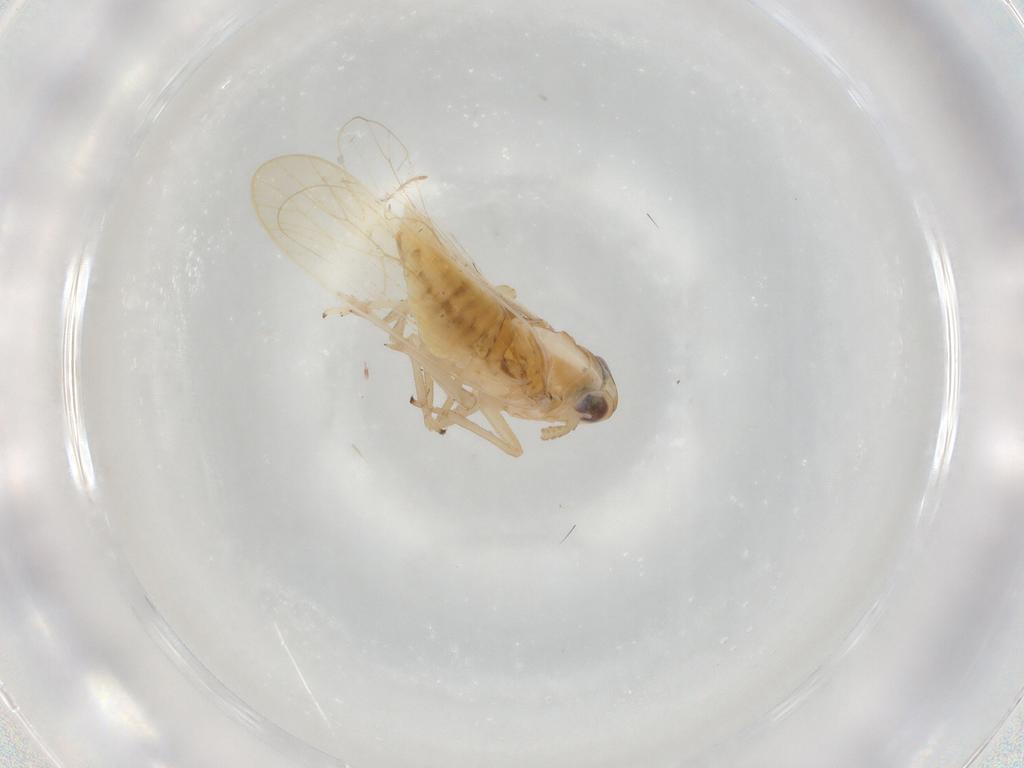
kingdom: Animalia
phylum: Arthropoda
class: Insecta
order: Hemiptera
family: Delphacidae
